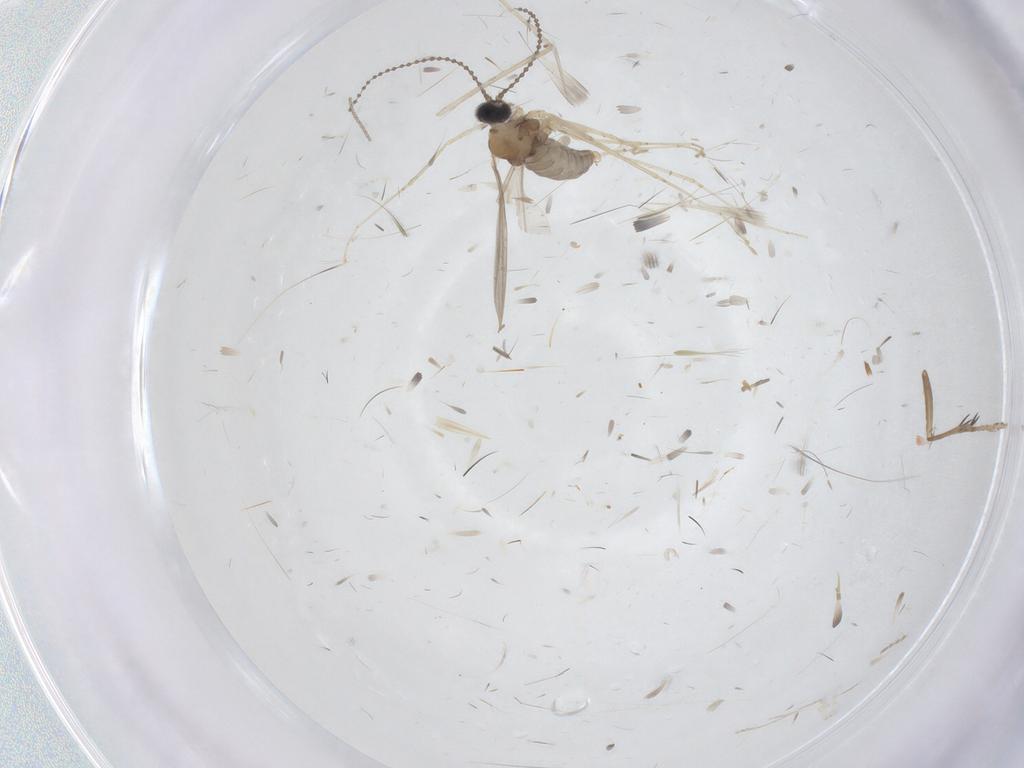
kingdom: Animalia
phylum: Arthropoda
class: Insecta
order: Diptera
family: Cecidomyiidae
